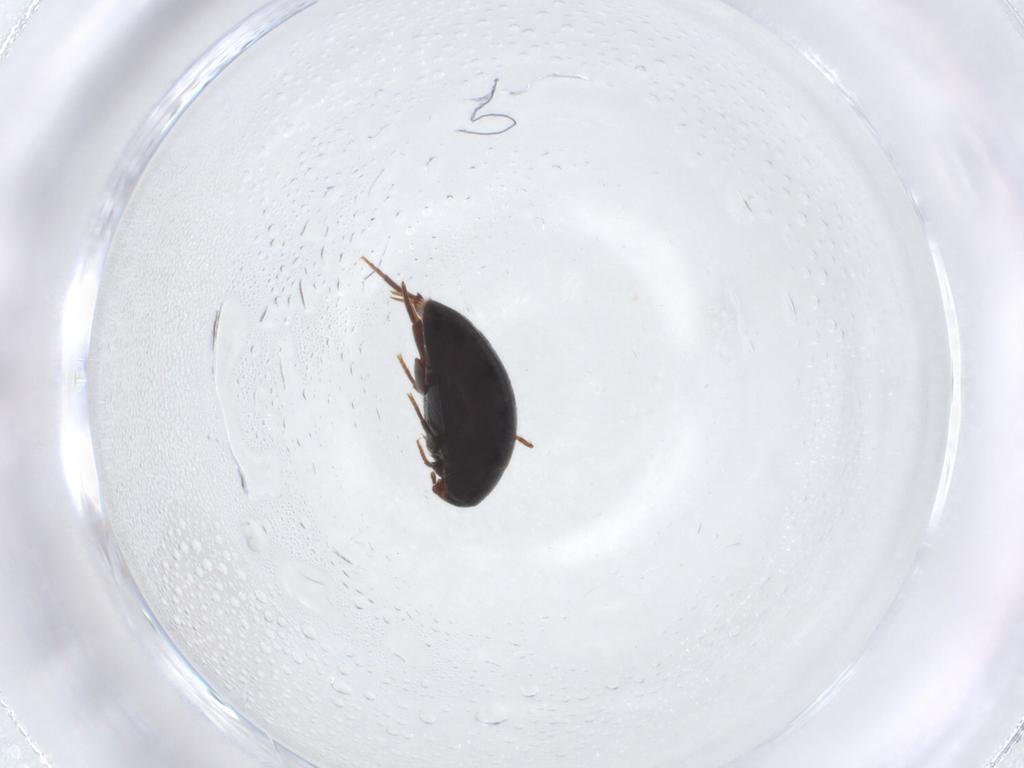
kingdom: Animalia
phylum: Arthropoda
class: Insecta
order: Coleoptera
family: Melandryidae
